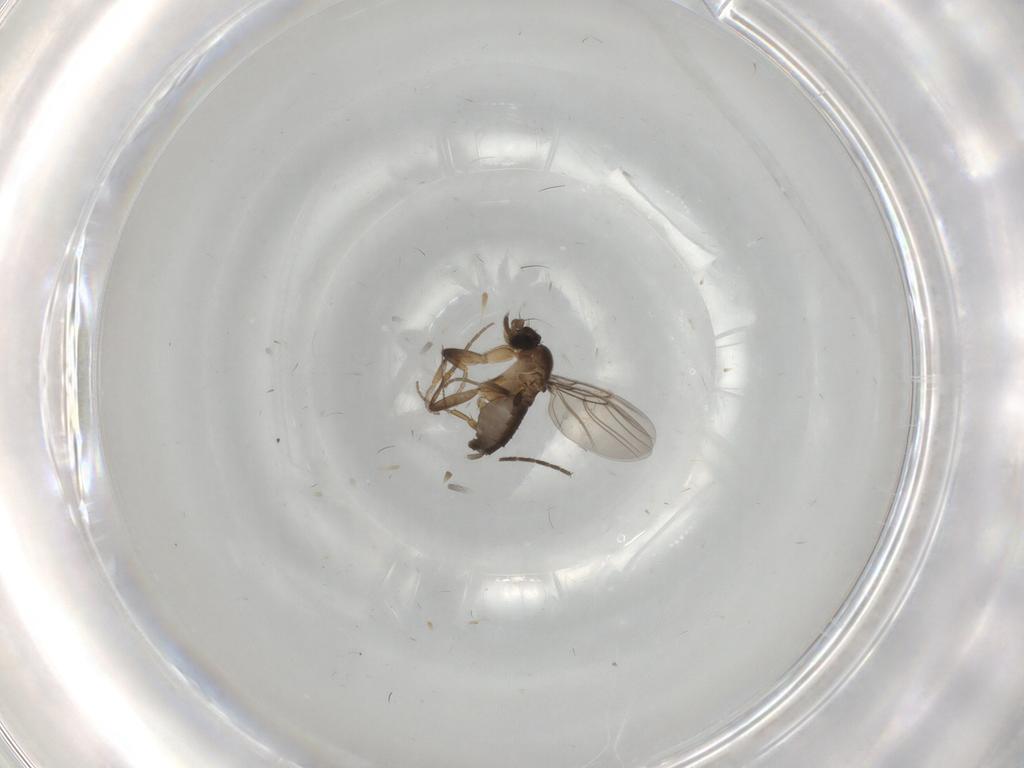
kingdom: Animalia
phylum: Arthropoda
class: Insecta
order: Diptera
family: Phoridae
